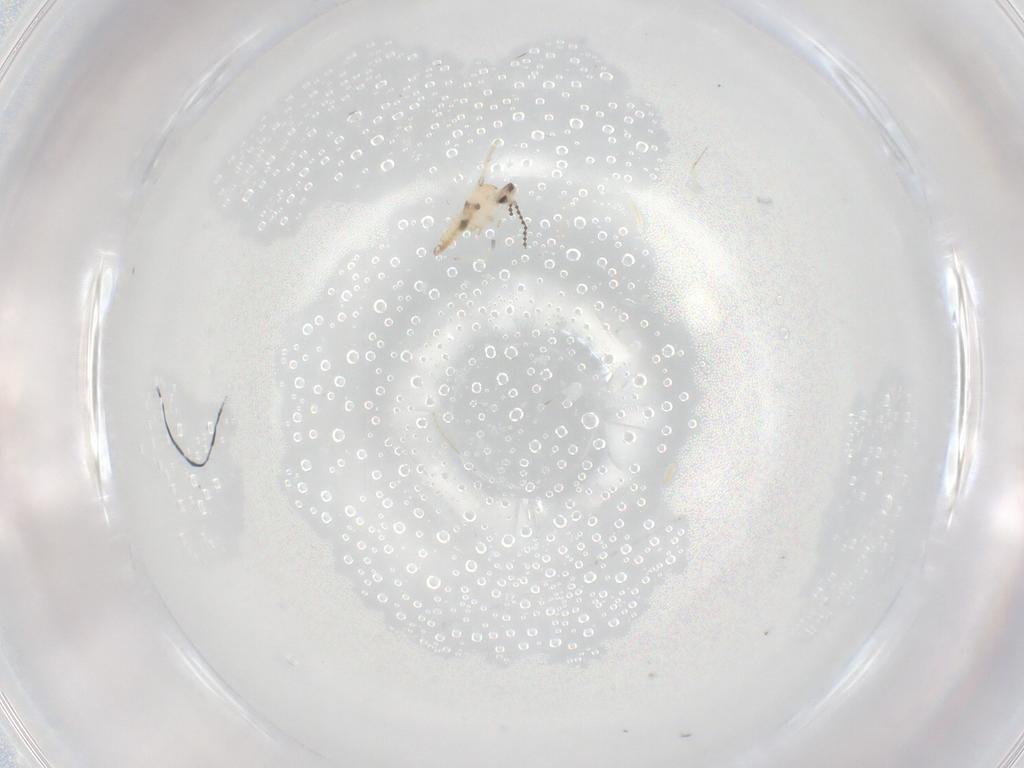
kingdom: Animalia
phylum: Arthropoda
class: Insecta
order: Diptera
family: Cecidomyiidae
